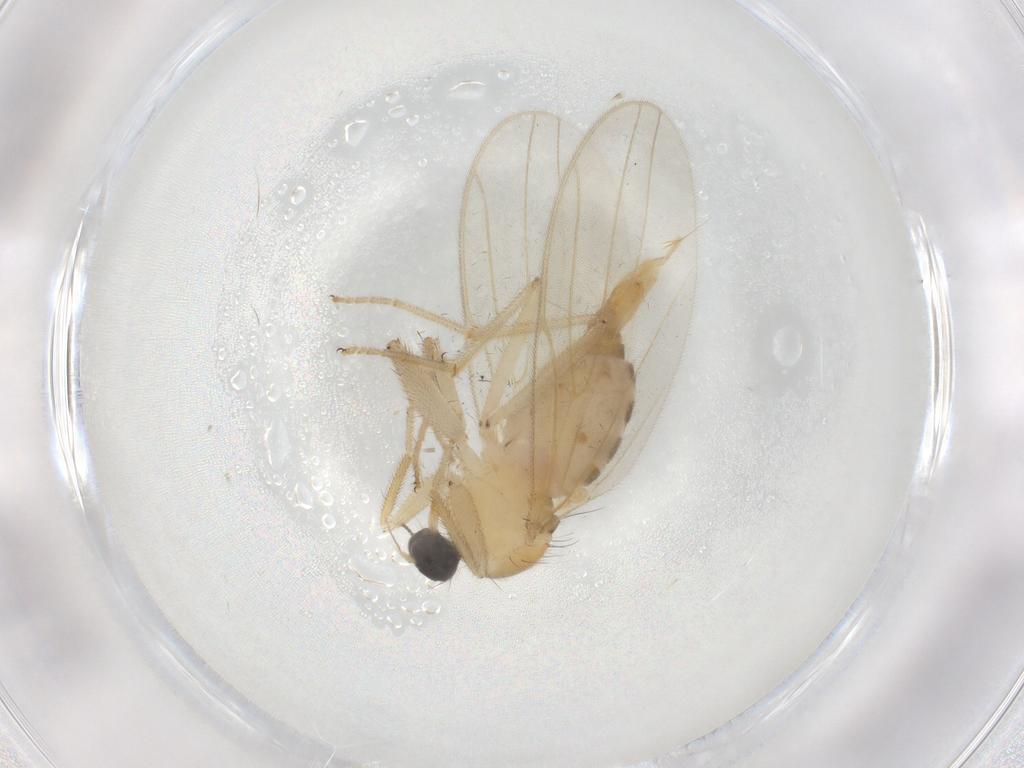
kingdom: Animalia
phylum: Arthropoda
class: Insecta
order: Diptera
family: Hybotidae
